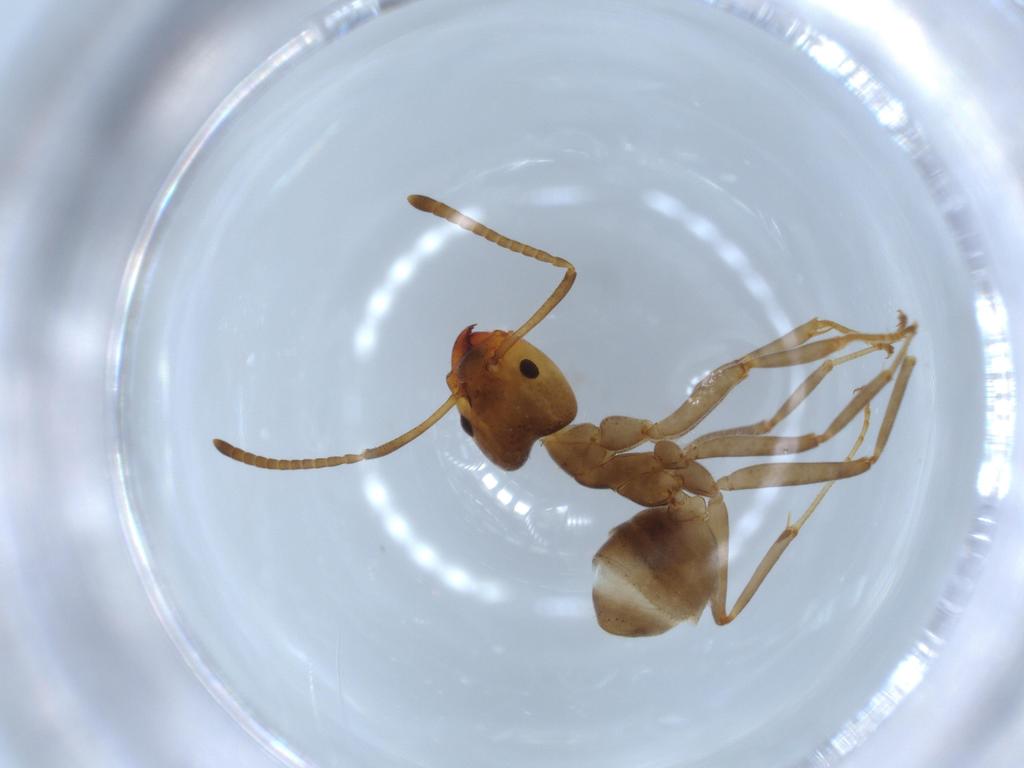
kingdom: Animalia
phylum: Arthropoda
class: Insecta
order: Hymenoptera
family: Formicidae
